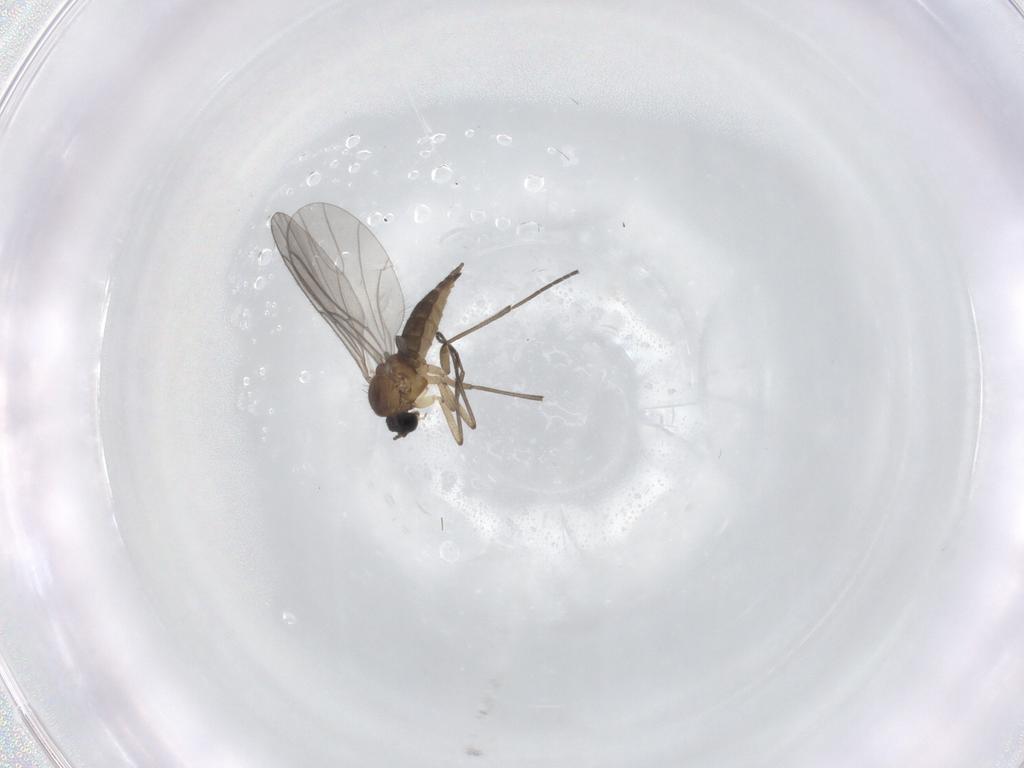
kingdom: Animalia
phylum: Arthropoda
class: Insecta
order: Diptera
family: Sciaridae
